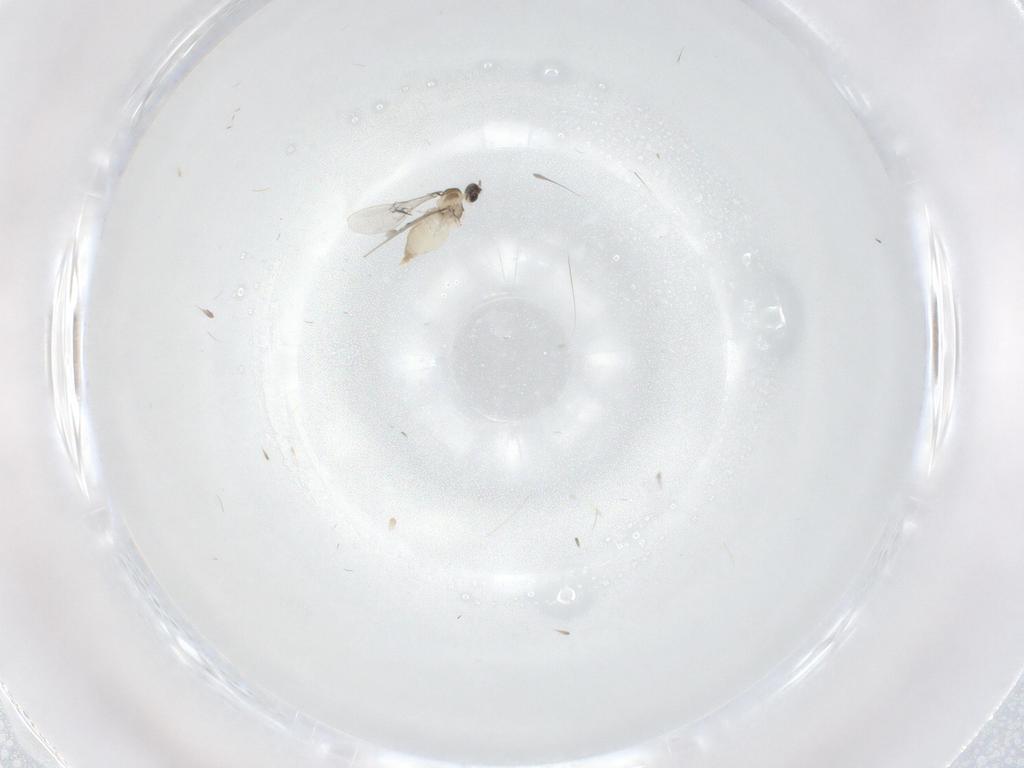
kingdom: Animalia
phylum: Arthropoda
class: Insecta
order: Diptera
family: Cecidomyiidae
